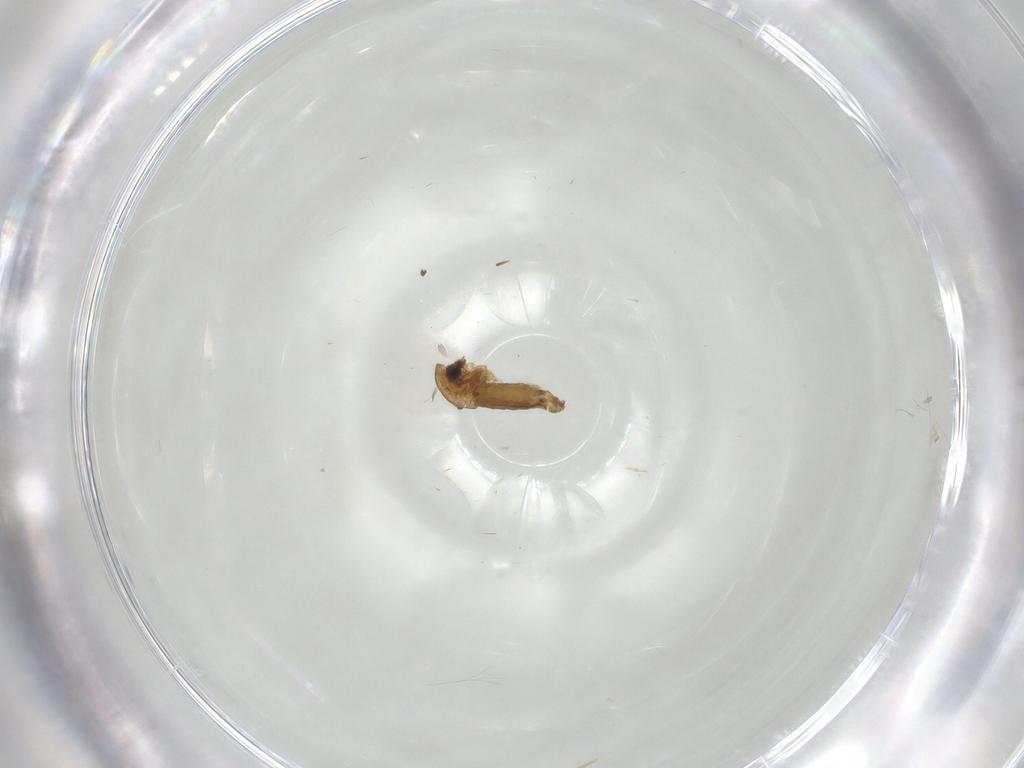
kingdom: Animalia
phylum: Arthropoda
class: Insecta
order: Diptera
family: Chironomidae
